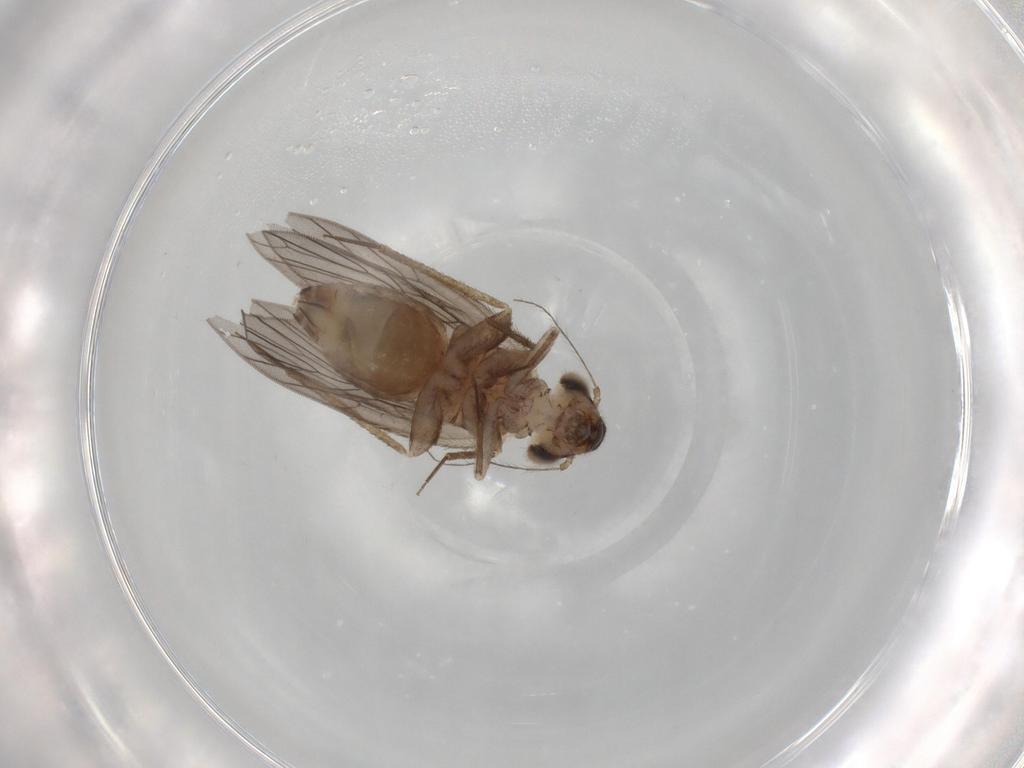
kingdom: Animalia
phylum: Arthropoda
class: Insecta
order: Psocodea
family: Lepidopsocidae
